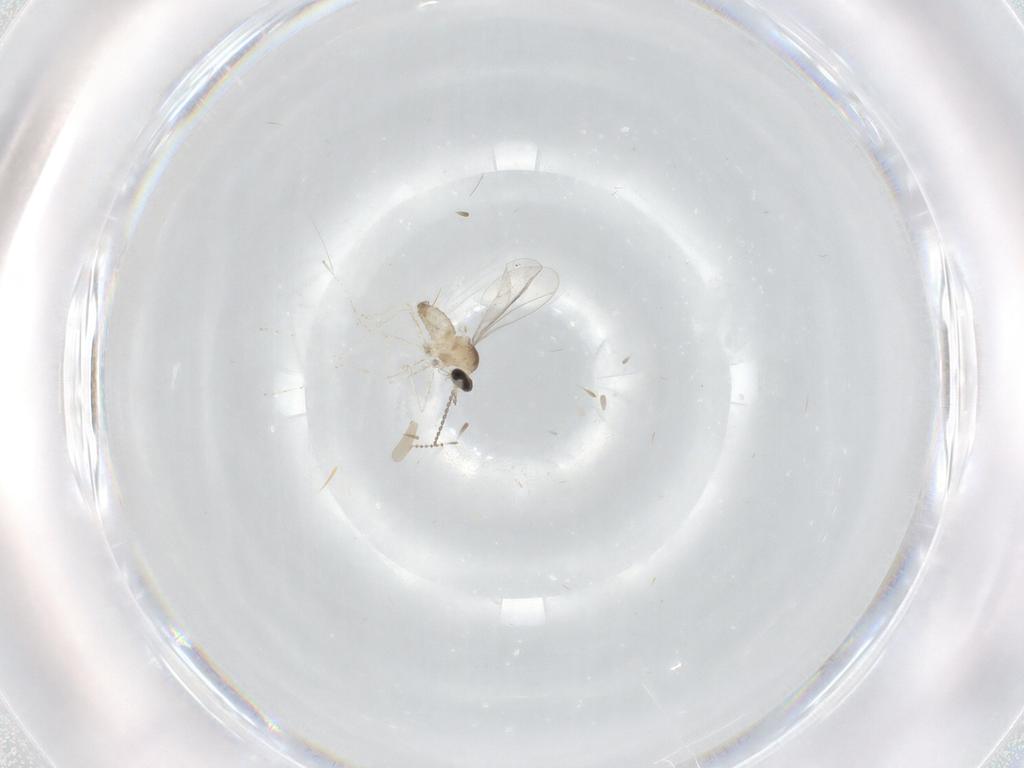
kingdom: Animalia
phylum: Arthropoda
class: Insecta
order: Diptera
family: Cecidomyiidae
